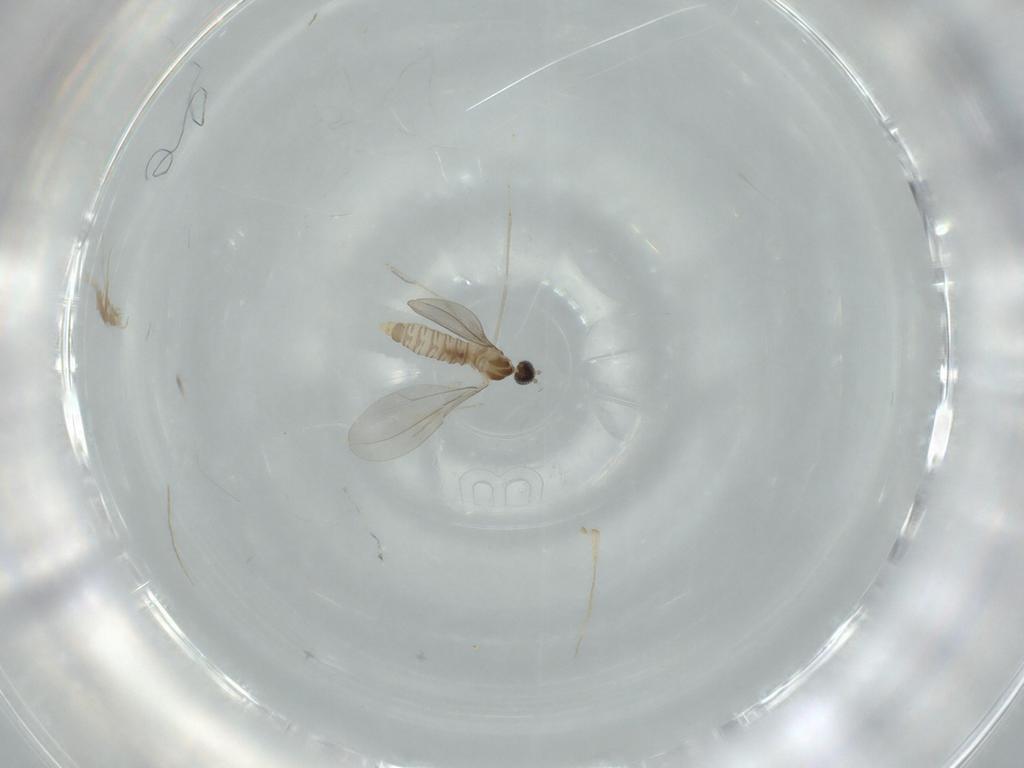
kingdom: Animalia
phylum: Arthropoda
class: Insecta
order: Diptera
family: Cecidomyiidae
